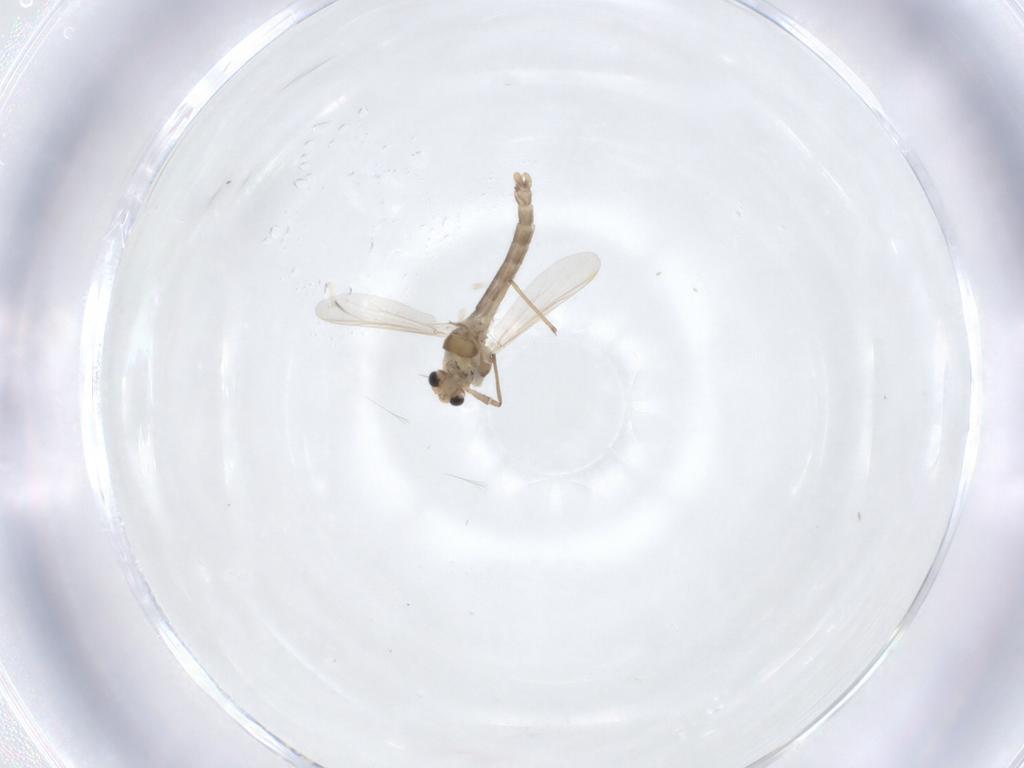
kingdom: Animalia
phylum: Arthropoda
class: Insecta
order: Diptera
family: Chironomidae
